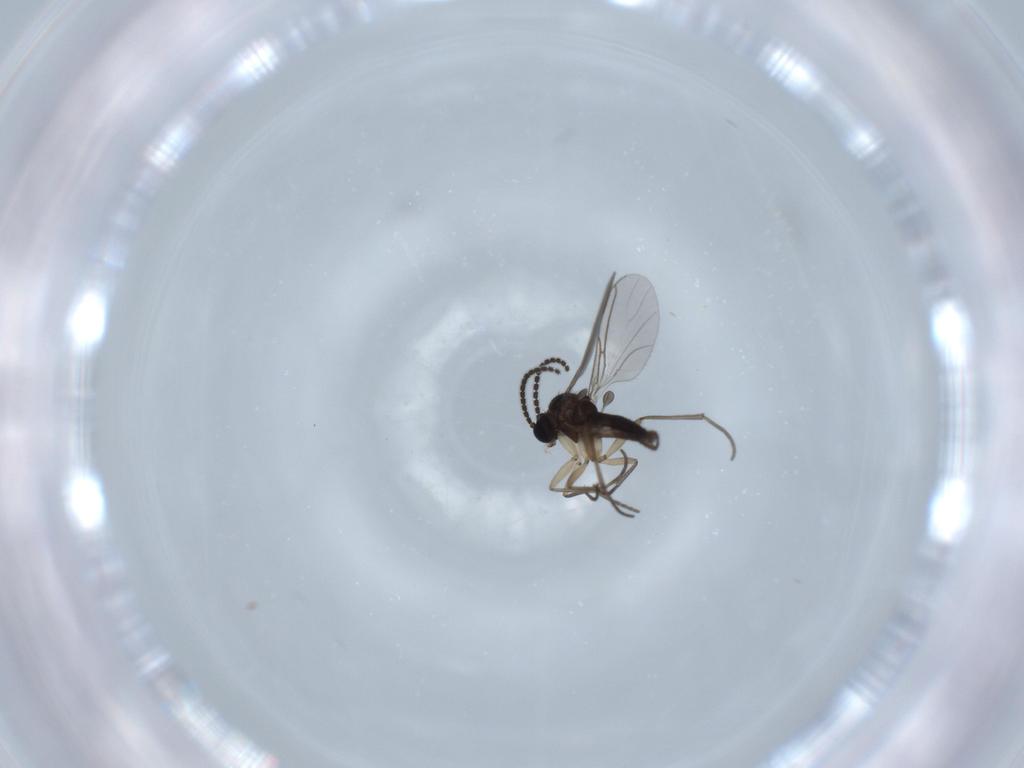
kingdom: Animalia
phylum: Arthropoda
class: Insecta
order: Diptera
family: Sciaridae
